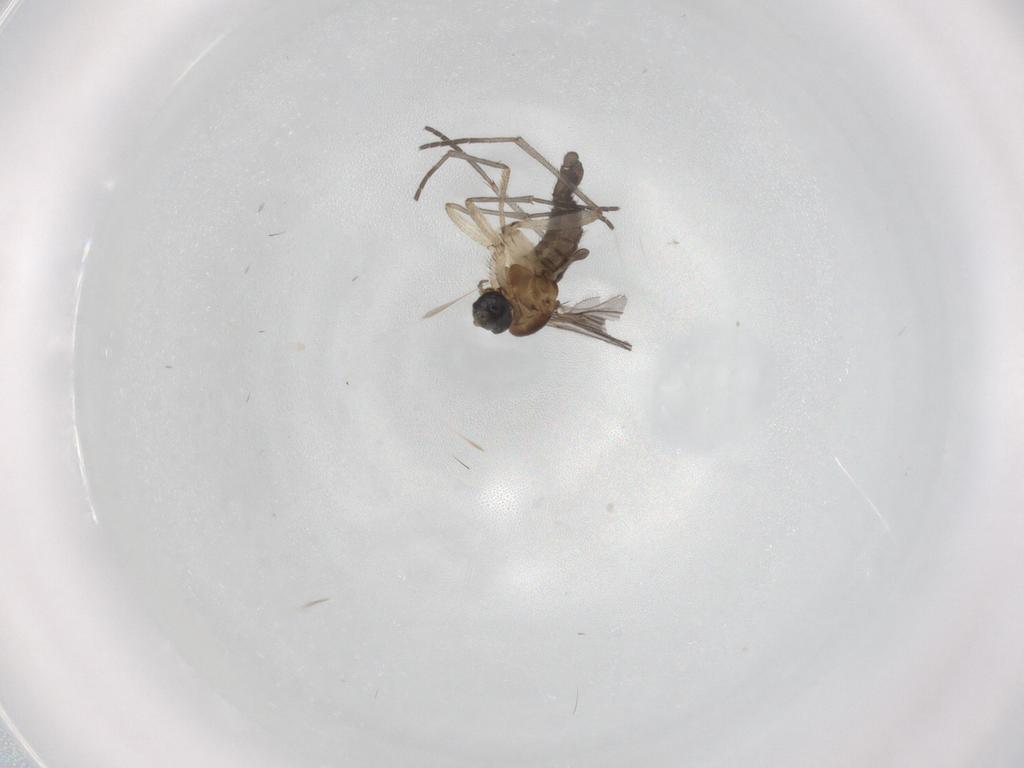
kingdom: Animalia
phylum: Arthropoda
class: Insecta
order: Diptera
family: Sciaridae
